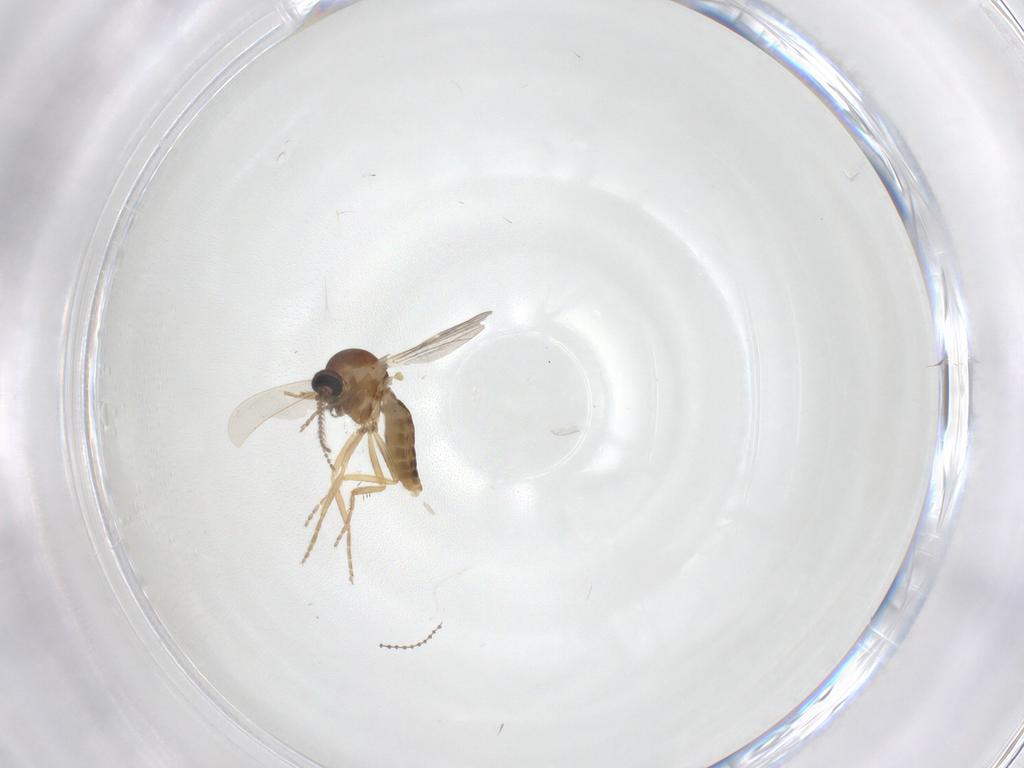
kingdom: Animalia
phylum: Arthropoda
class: Insecta
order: Diptera
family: Ceratopogonidae
